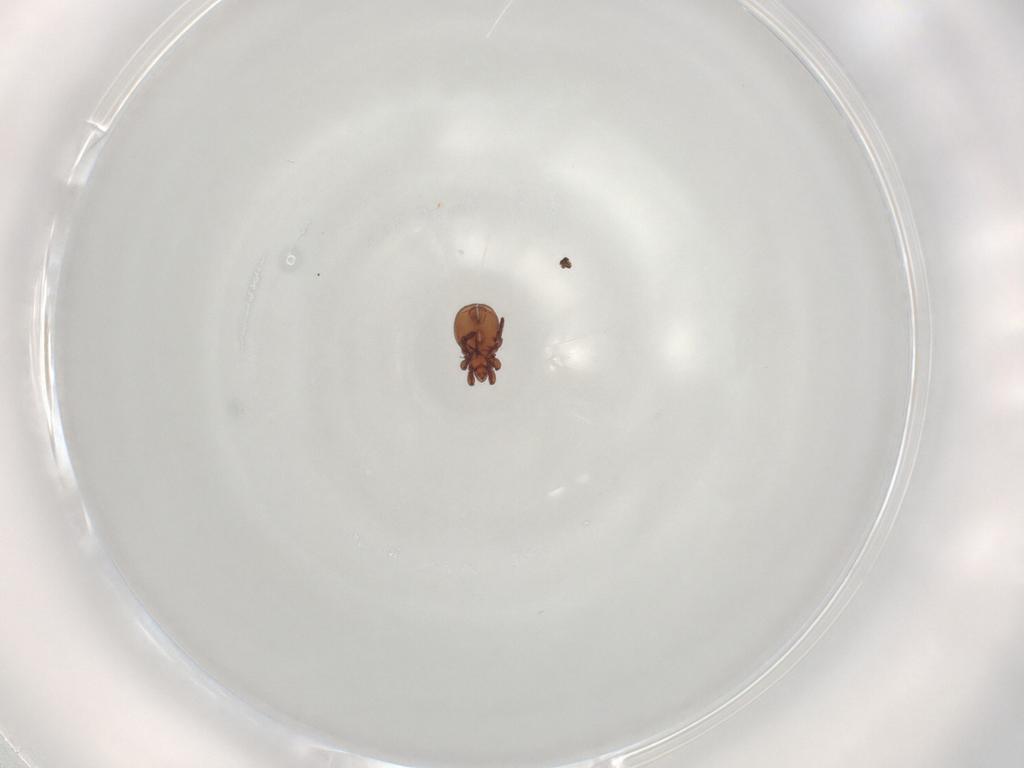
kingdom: Animalia
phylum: Arthropoda
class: Arachnida
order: Sarcoptiformes
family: Eremaeidae
